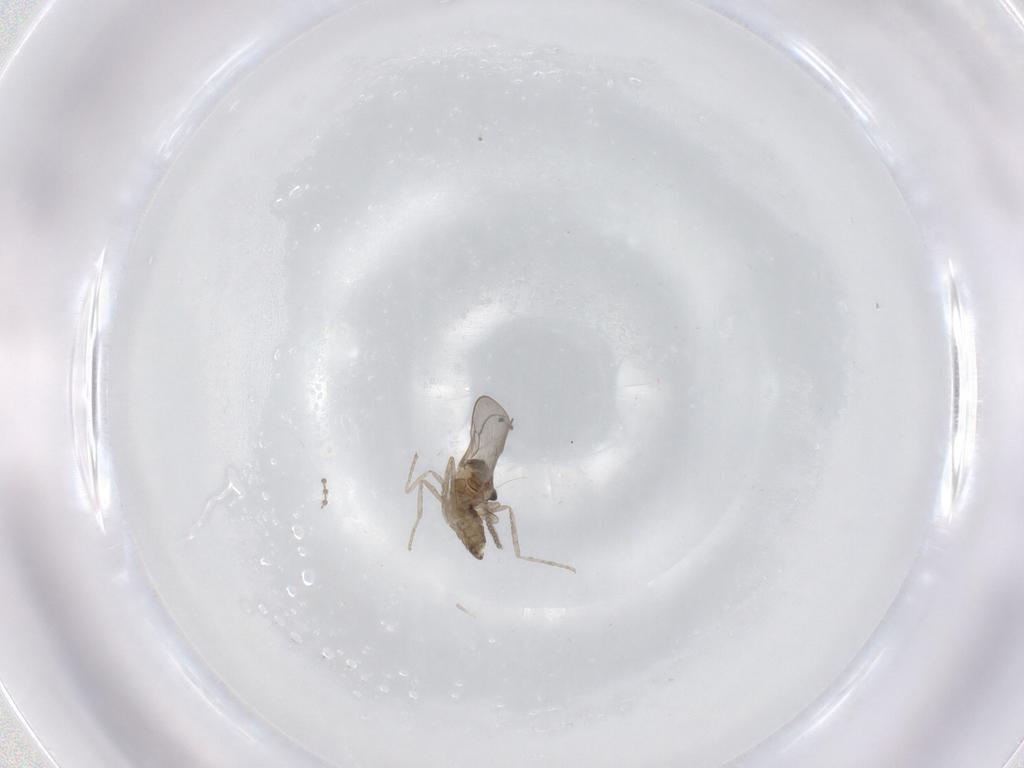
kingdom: Animalia
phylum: Arthropoda
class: Insecta
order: Diptera
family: Cecidomyiidae
